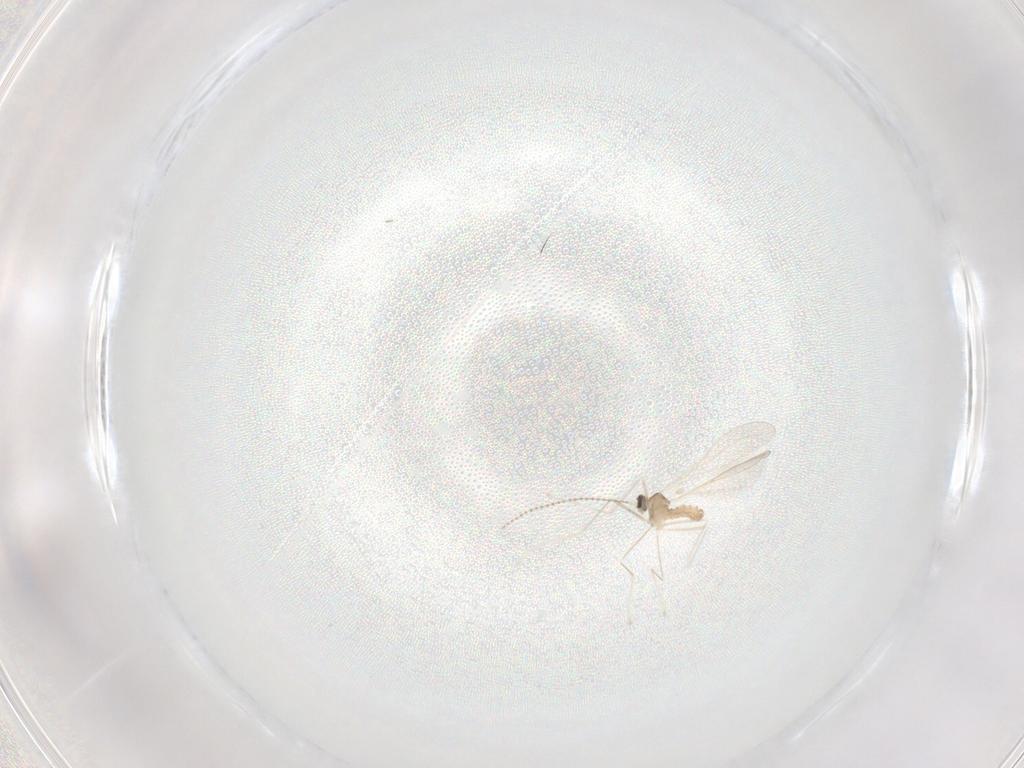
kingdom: Animalia
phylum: Arthropoda
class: Insecta
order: Diptera
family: Cecidomyiidae
